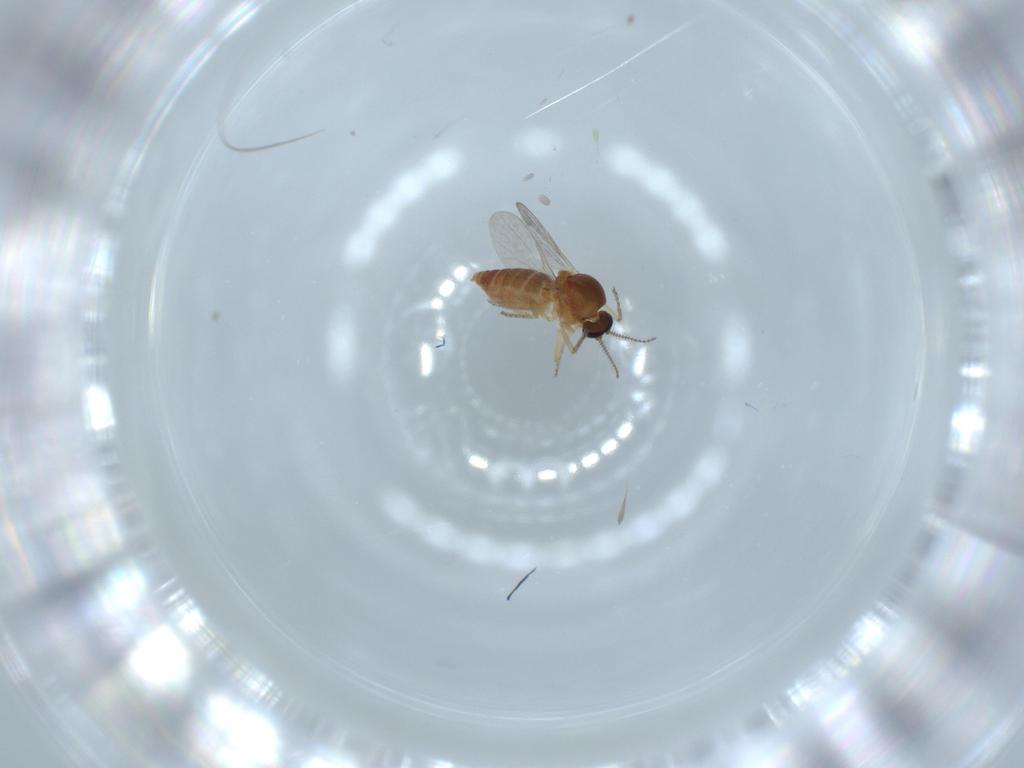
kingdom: Animalia
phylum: Arthropoda
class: Insecta
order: Diptera
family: Ceratopogonidae
